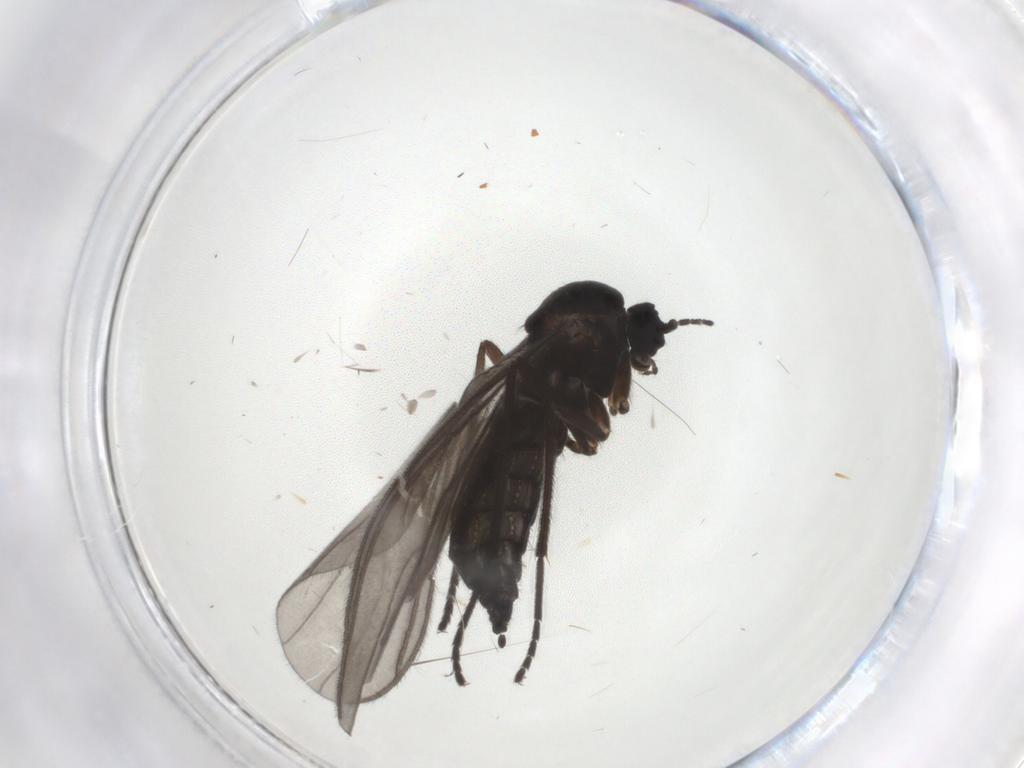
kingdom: Animalia
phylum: Arthropoda
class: Insecta
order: Diptera
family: Sciaridae
